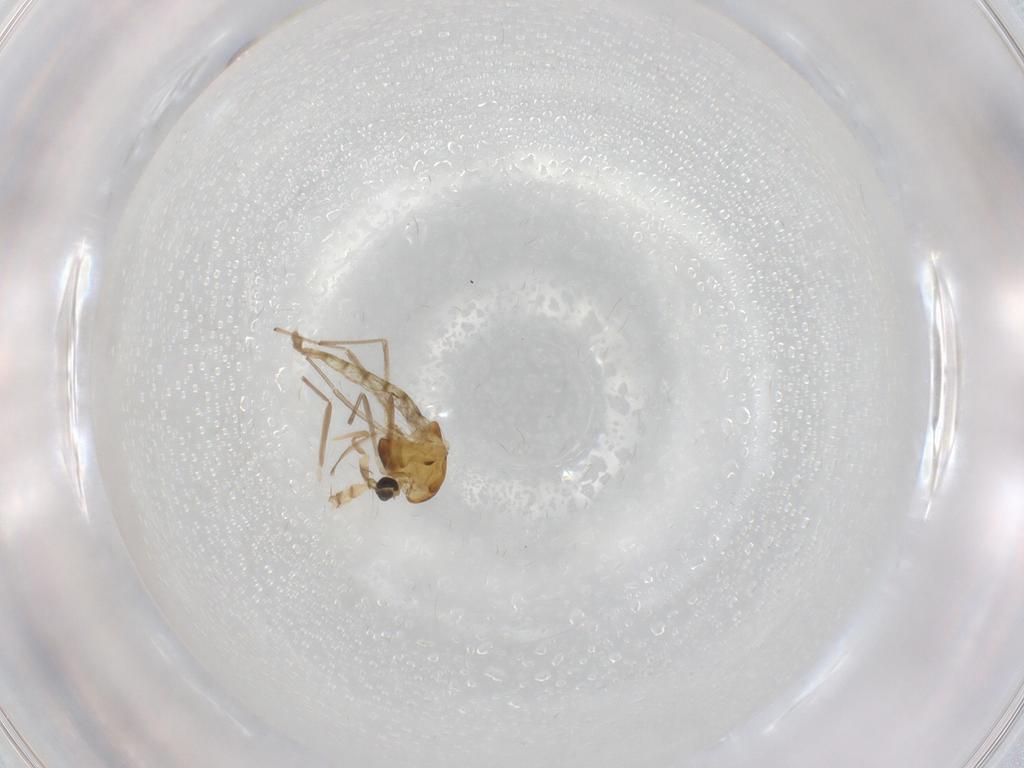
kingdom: Animalia
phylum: Arthropoda
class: Insecta
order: Diptera
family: Chironomidae
